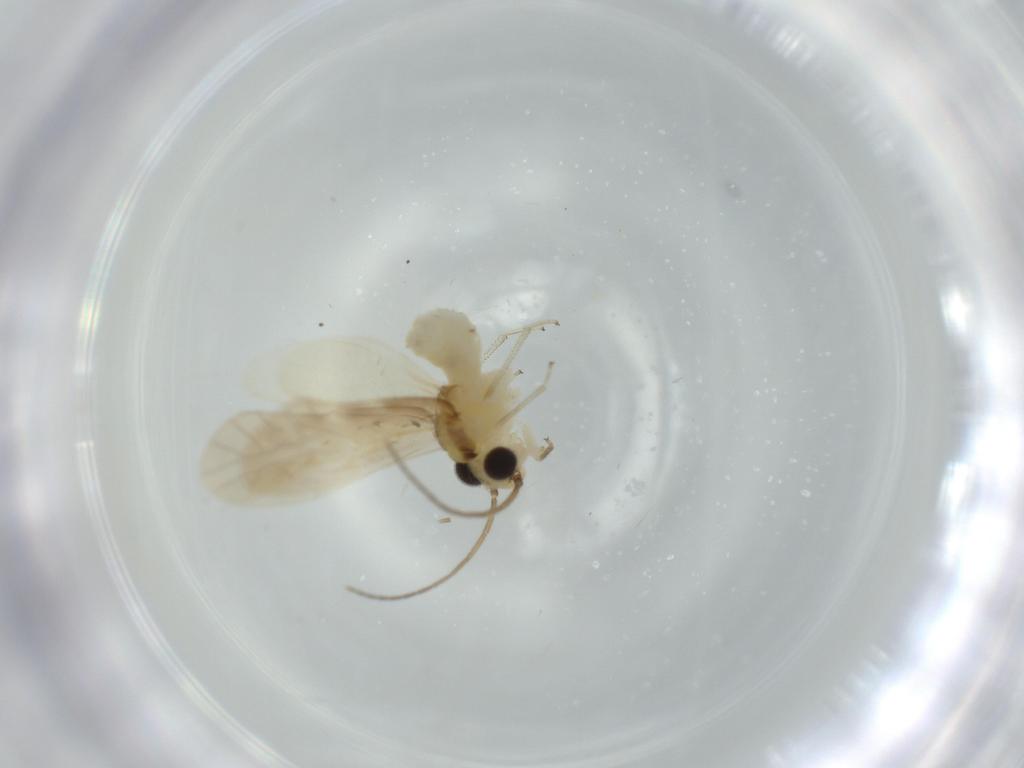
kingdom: Animalia
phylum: Arthropoda
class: Insecta
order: Psocodea
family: Caeciliusidae
